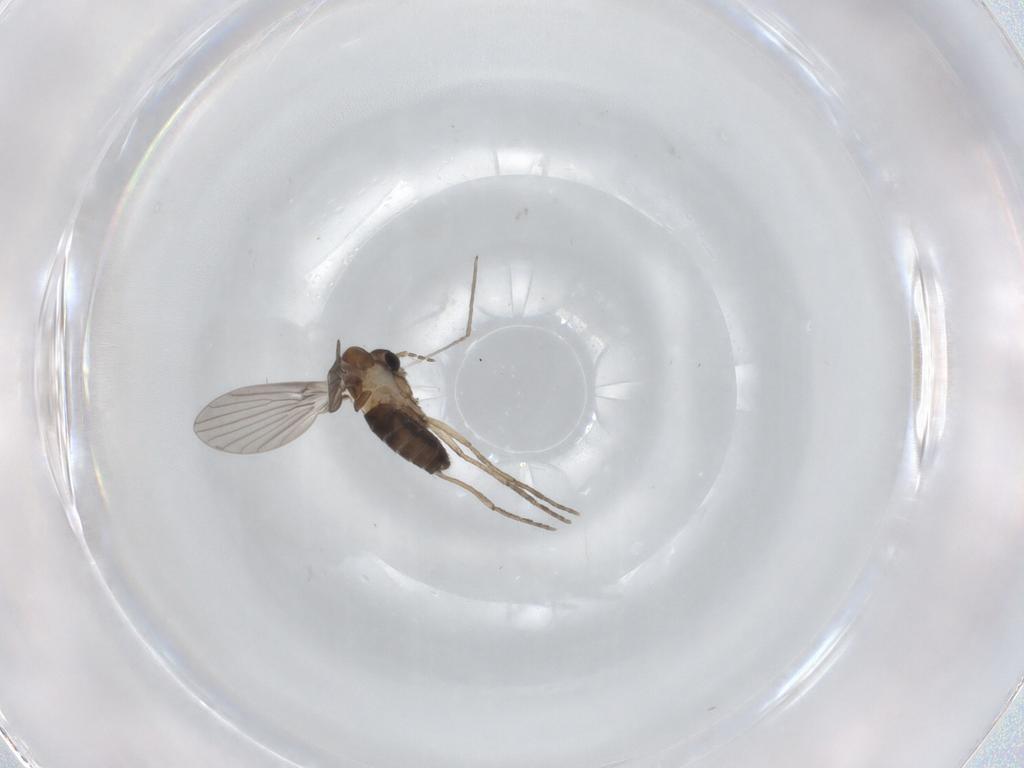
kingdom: Animalia
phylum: Arthropoda
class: Insecta
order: Diptera
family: Psychodidae
